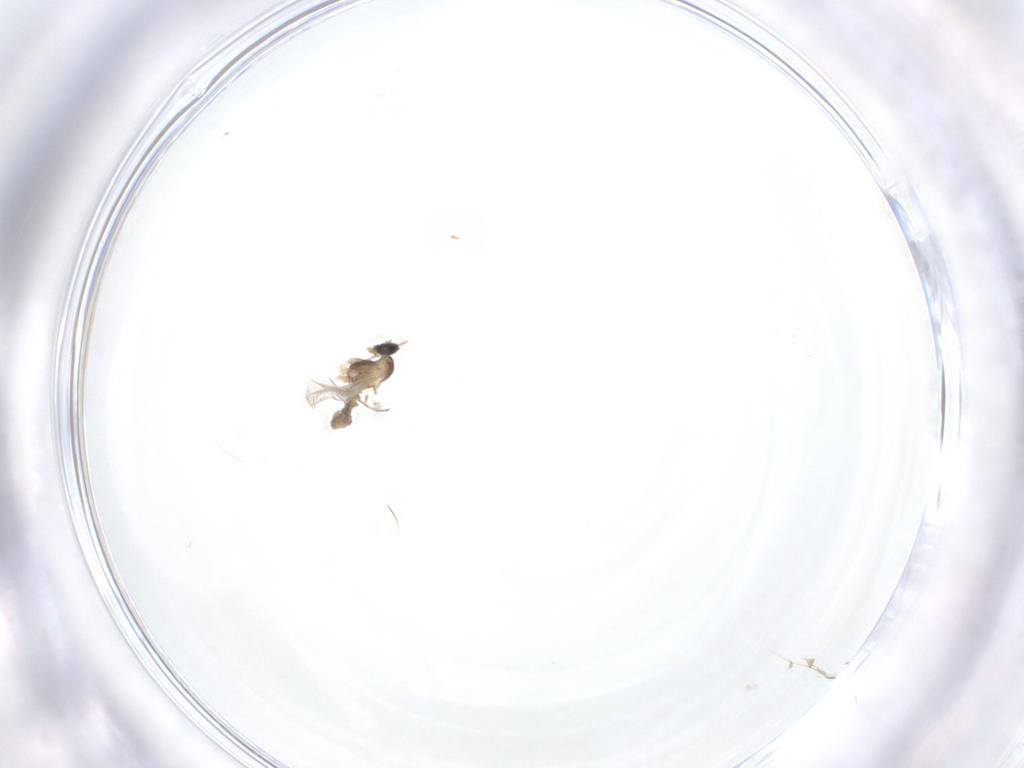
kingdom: Animalia
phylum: Arthropoda
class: Insecta
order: Diptera
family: Cecidomyiidae
